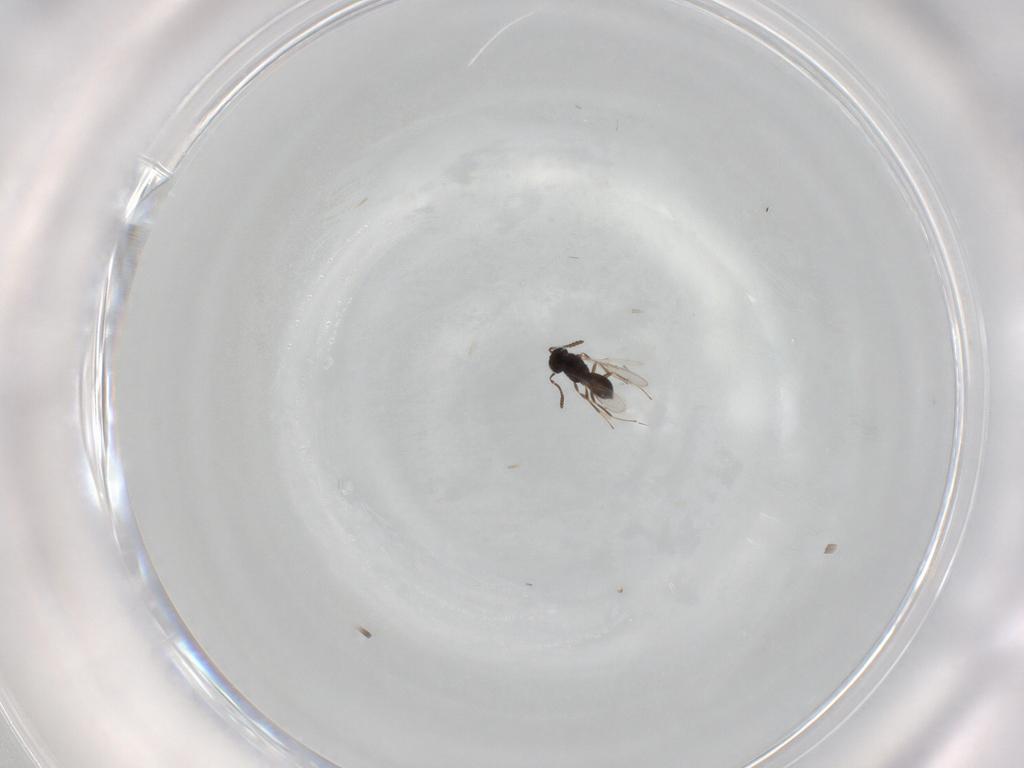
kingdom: Animalia
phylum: Arthropoda
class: Insecta
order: Hymenoptera
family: Scelionidae
